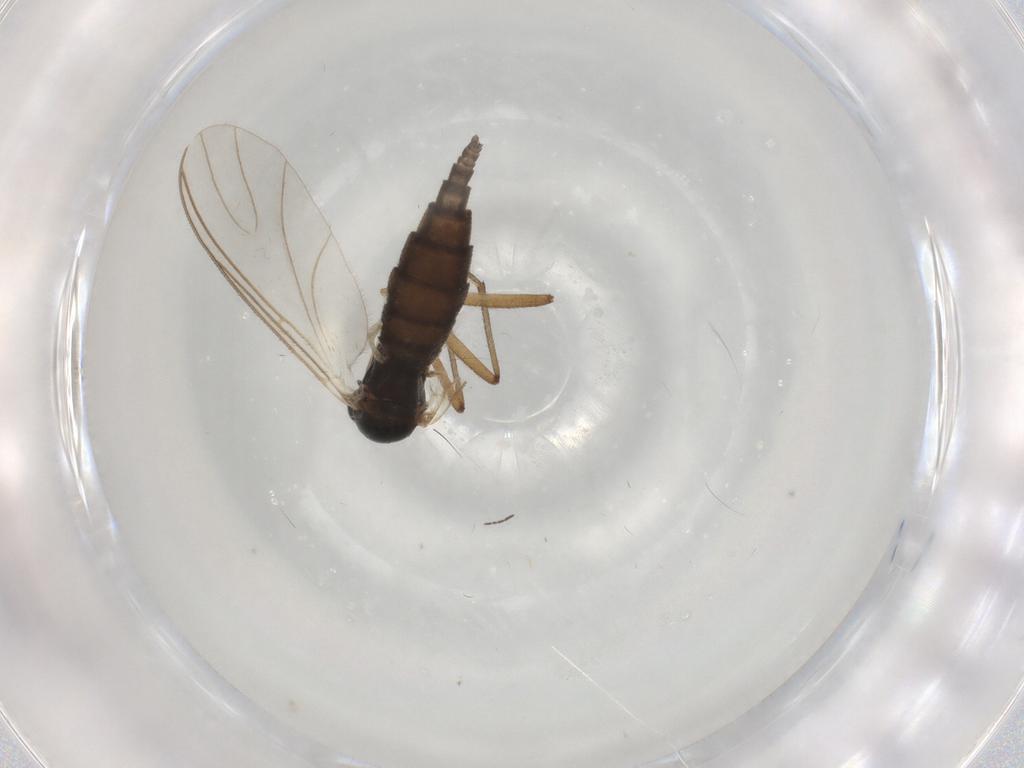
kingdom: Animalia
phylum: Arthropoda
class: Insecta
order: Diptera
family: Sciaridae
